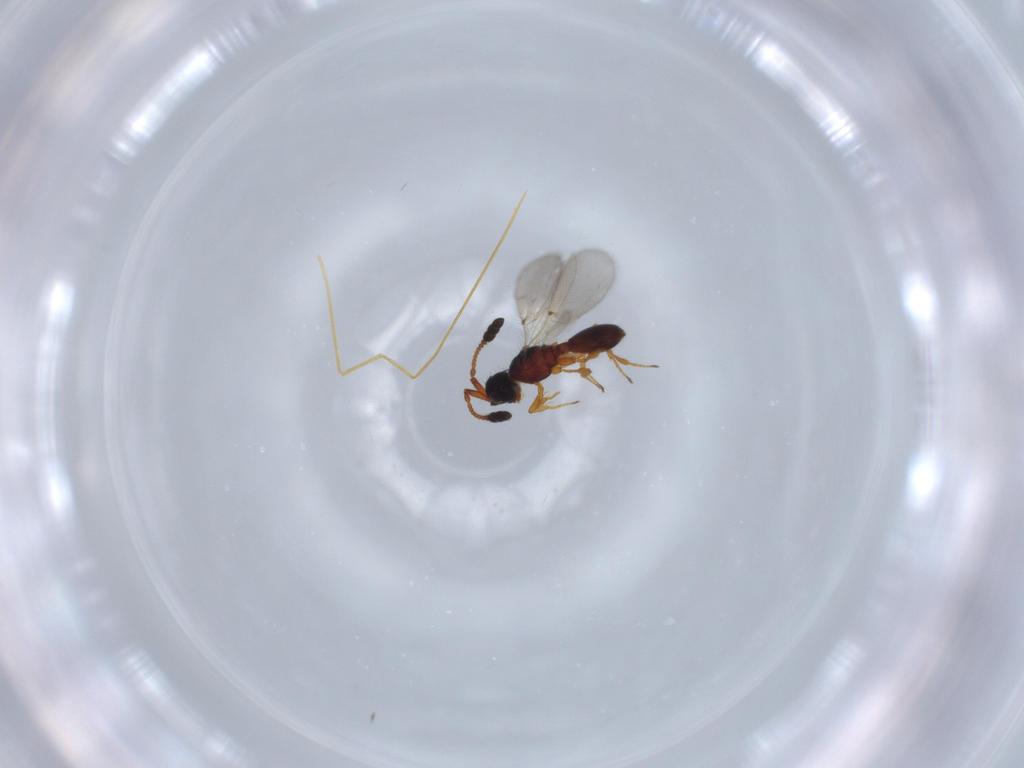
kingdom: Animalia
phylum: Arthropoda
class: Insecta
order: Hymenoptera
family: Diapriidae
